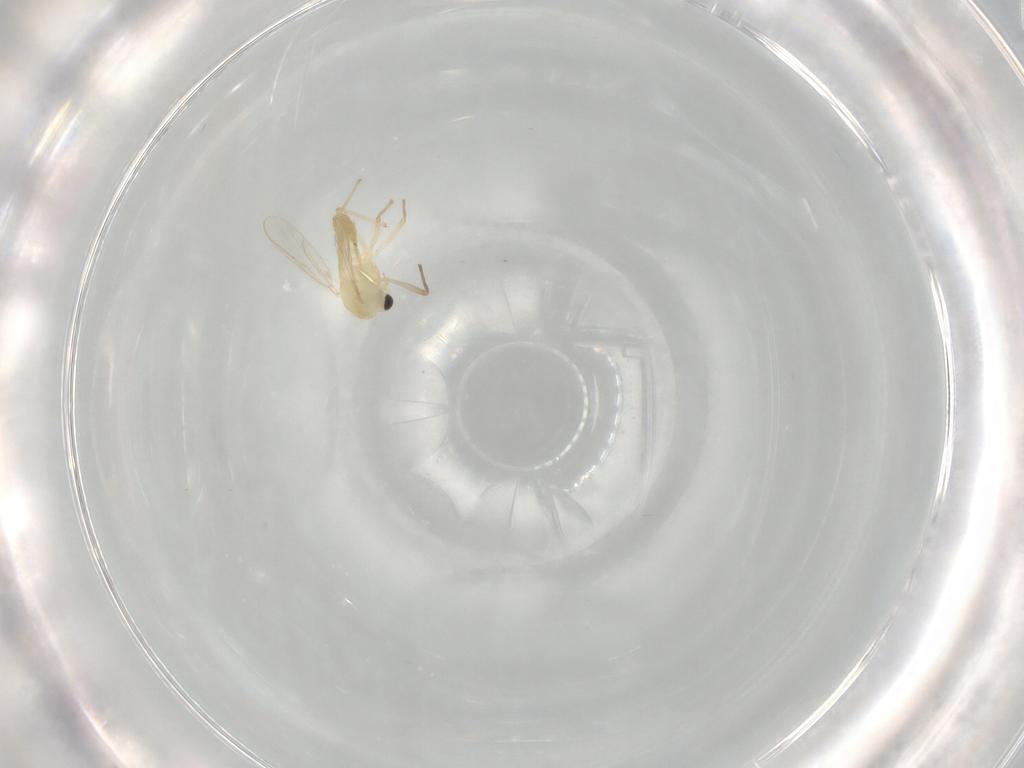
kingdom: Animalia
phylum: Arthropoda
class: Insecta
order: Diptera
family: Chironomidae
